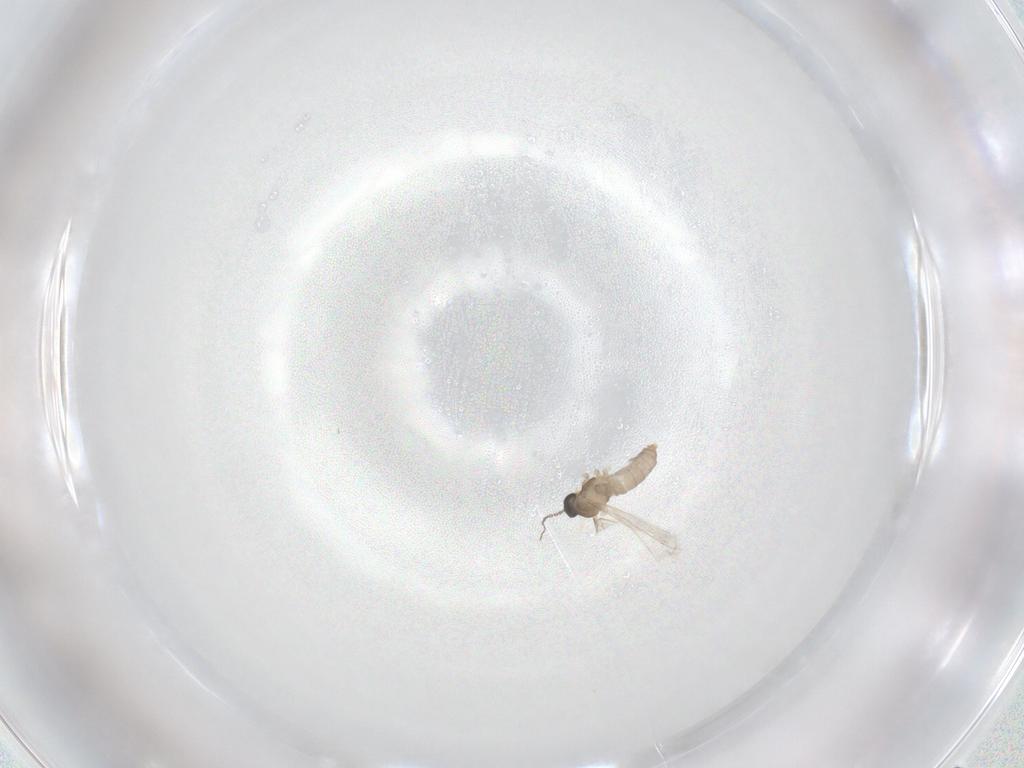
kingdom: Animalia
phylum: Arthropoda
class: Insecta
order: Diptera
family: Cecidomyiidae
